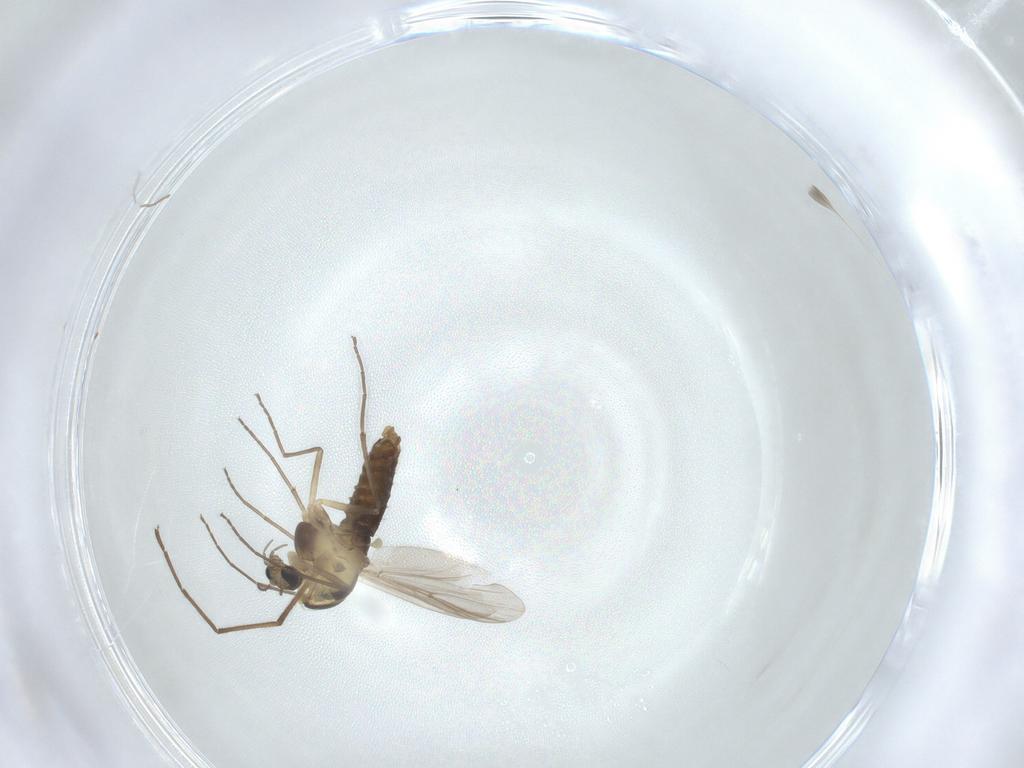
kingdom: Animalia
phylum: Arthropoda
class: Insecta
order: Diptera
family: Chironomidae
